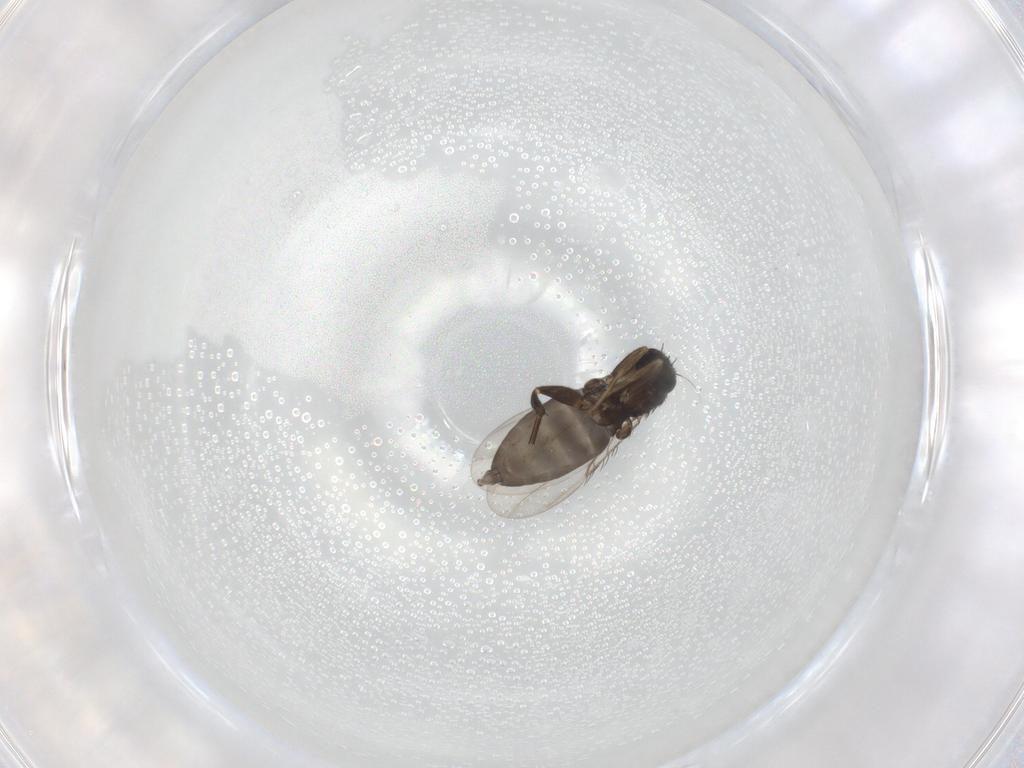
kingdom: Animalia
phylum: Arthropoda
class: Insecta
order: Diptera
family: Phoridae
